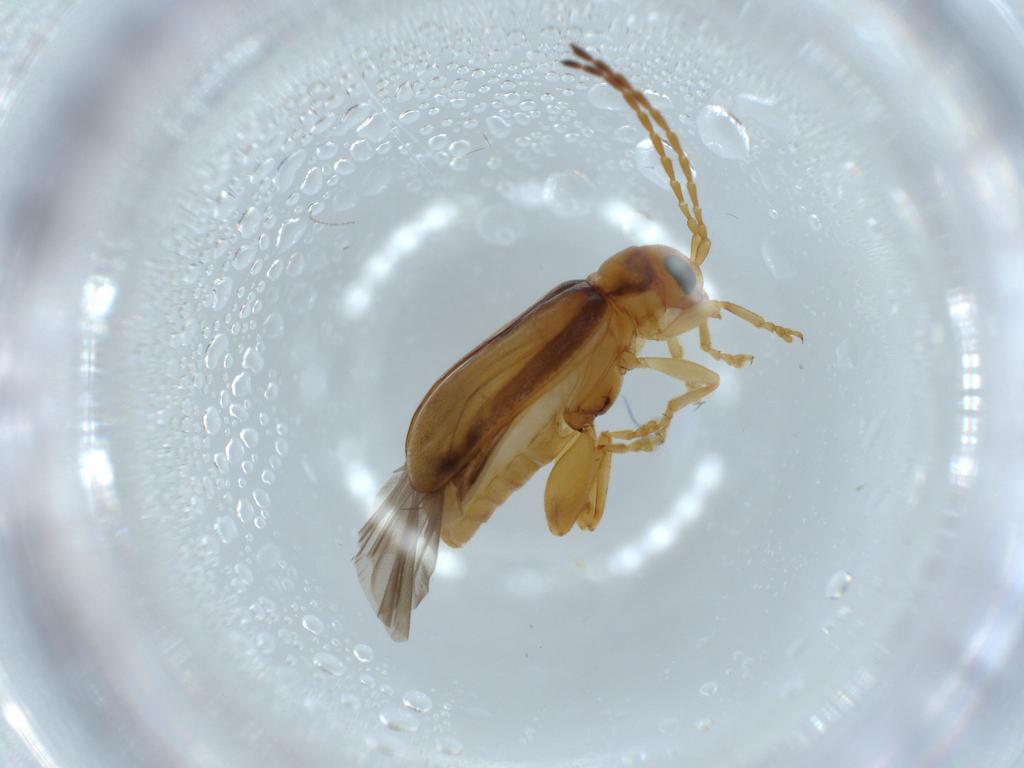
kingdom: Animalia
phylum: Arthropoda
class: Insecta
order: Coleoptera
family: Chrysomelidae
